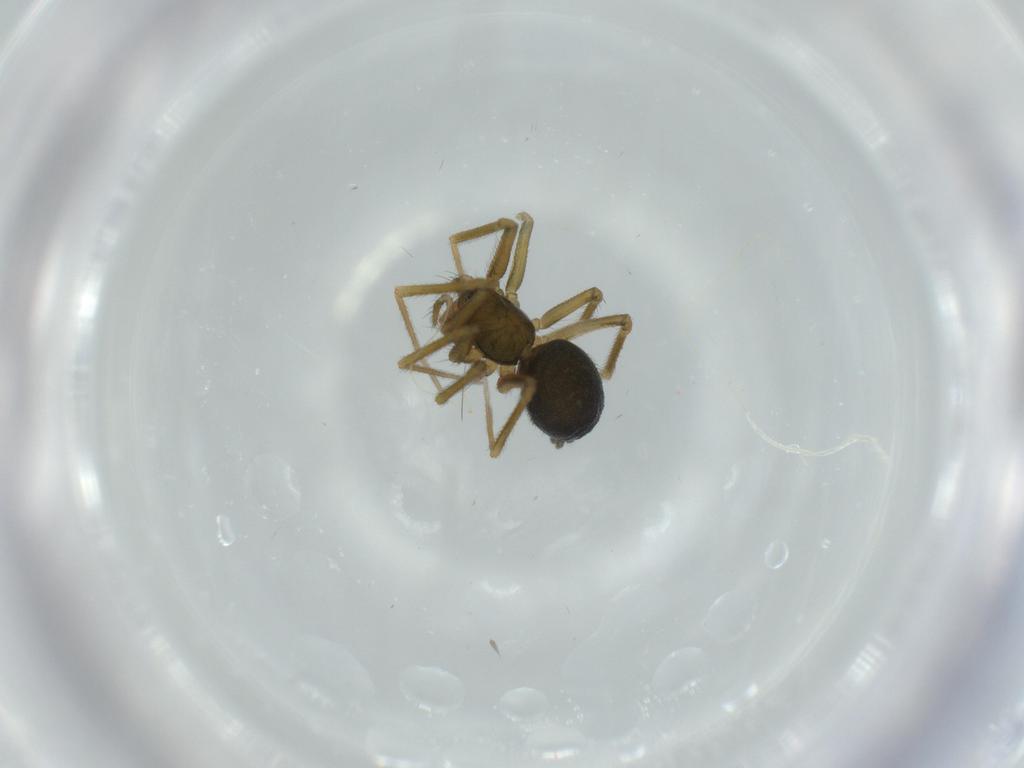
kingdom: Animalia
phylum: Arthropoda
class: Arachnida
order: Araneae
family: Linyphiidae
